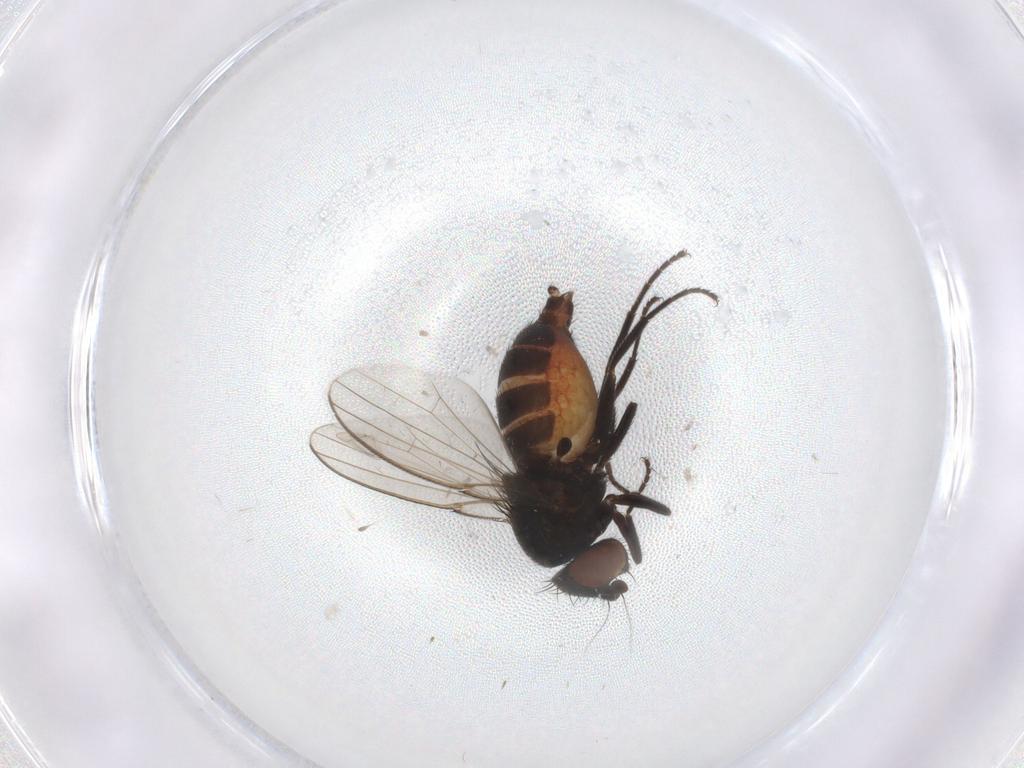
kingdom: Animalia
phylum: Arthropoda
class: Insecta
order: Diptera
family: Milichiidae
